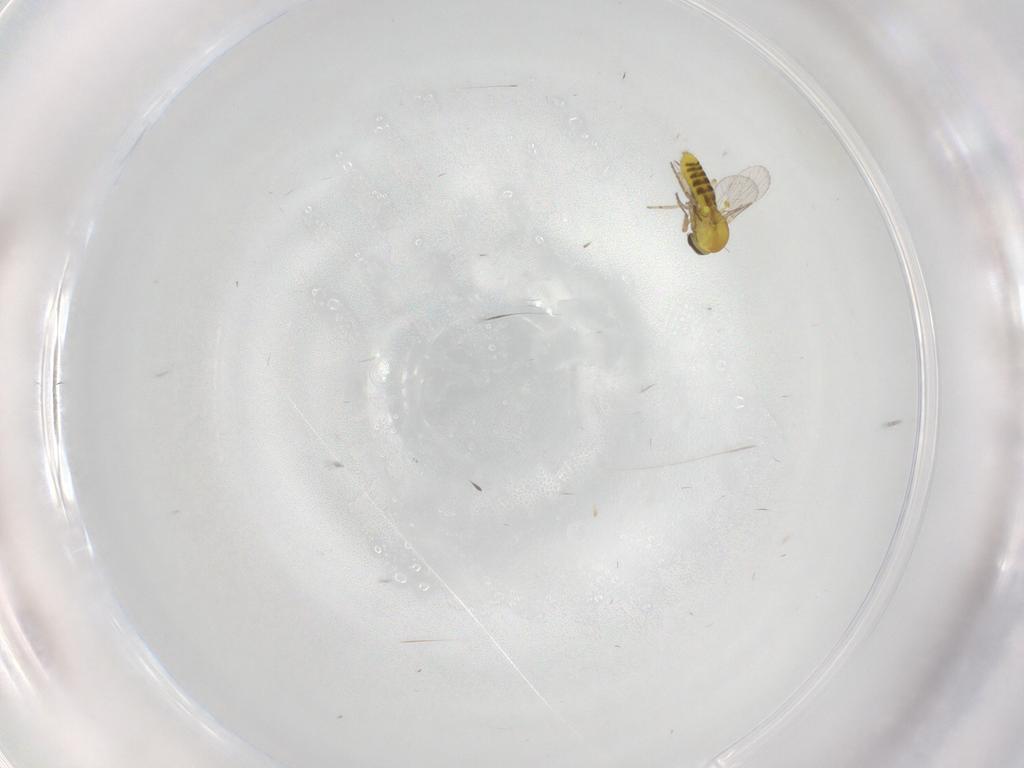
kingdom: Animalia
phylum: Arthropoda
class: Insecta
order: Diptera
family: Ceratopogonidae
